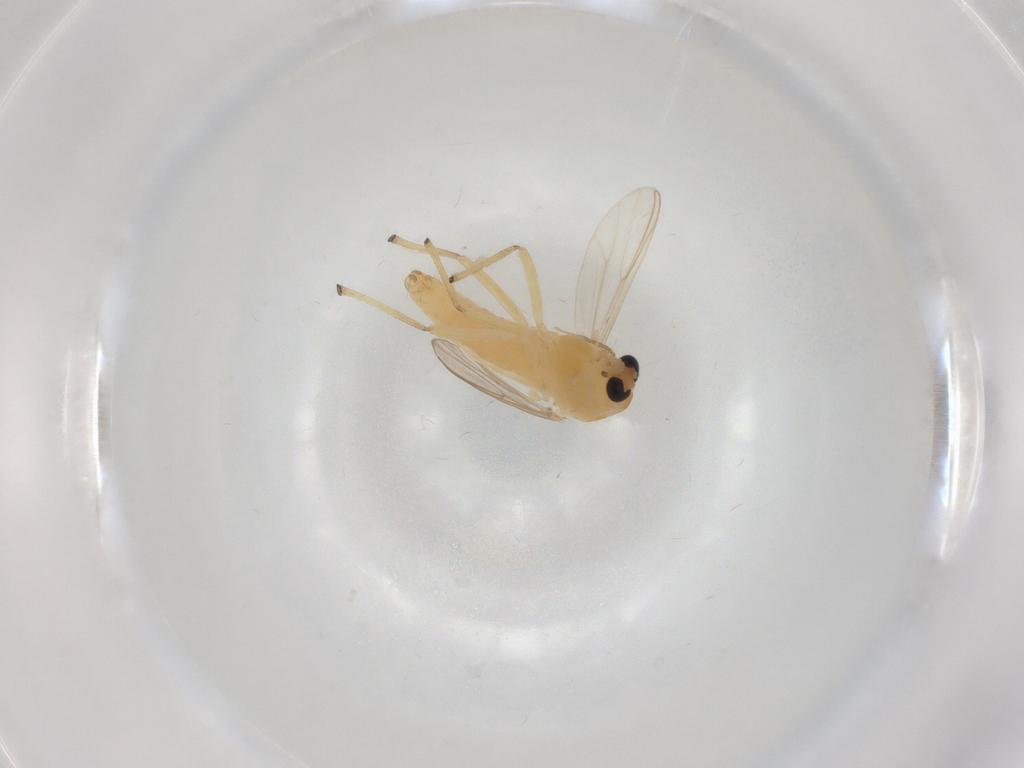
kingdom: Animalia
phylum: Arthropoda
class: Insecta
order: Diptera
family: Chironomidae
